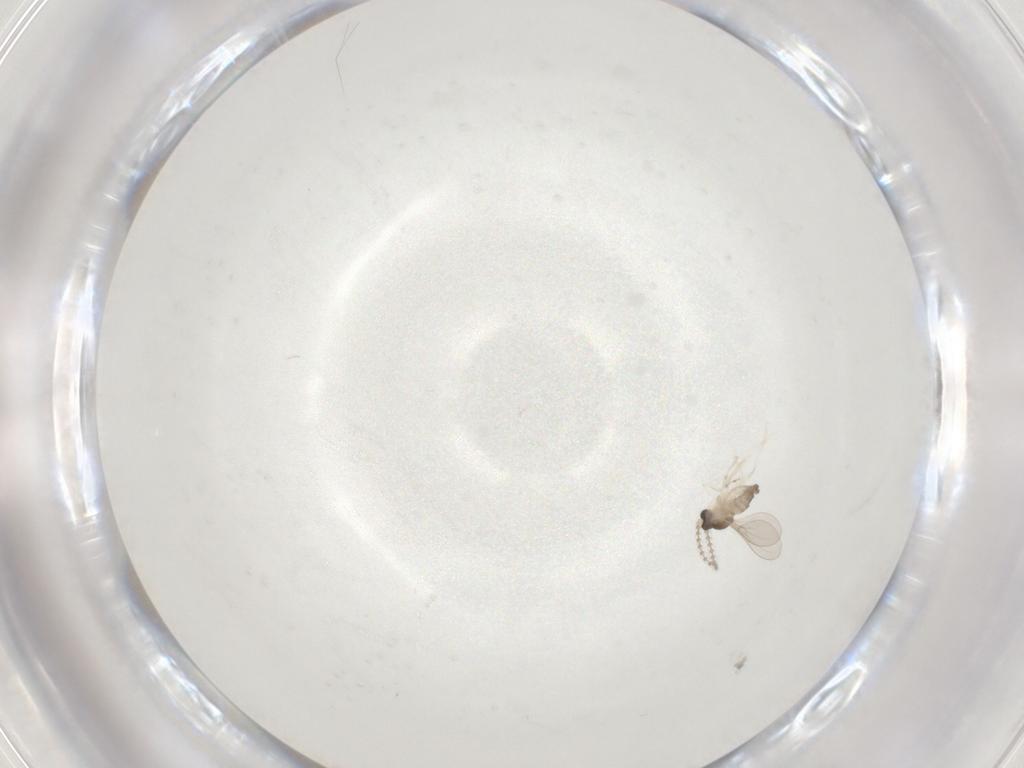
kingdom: Animalia
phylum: Arthropoda
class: Insecta
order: Diptera
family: Cecidomyiidae
